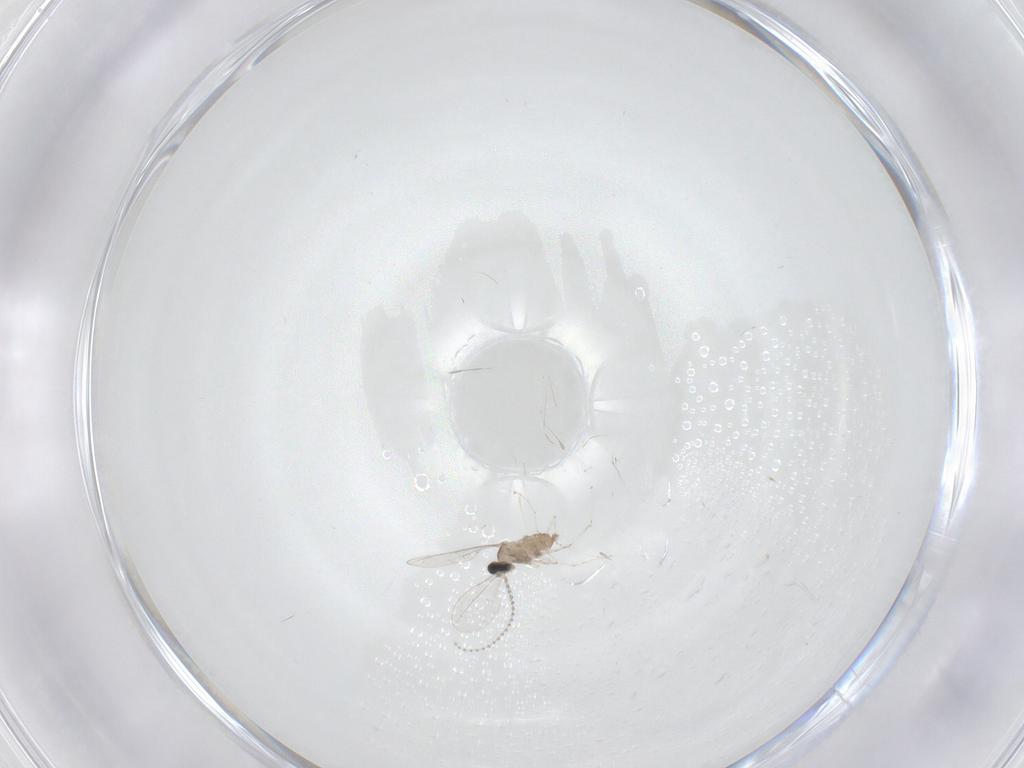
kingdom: Animalia
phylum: Arthropoda
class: Insecta
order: Diptera
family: Cecidomyiidae
